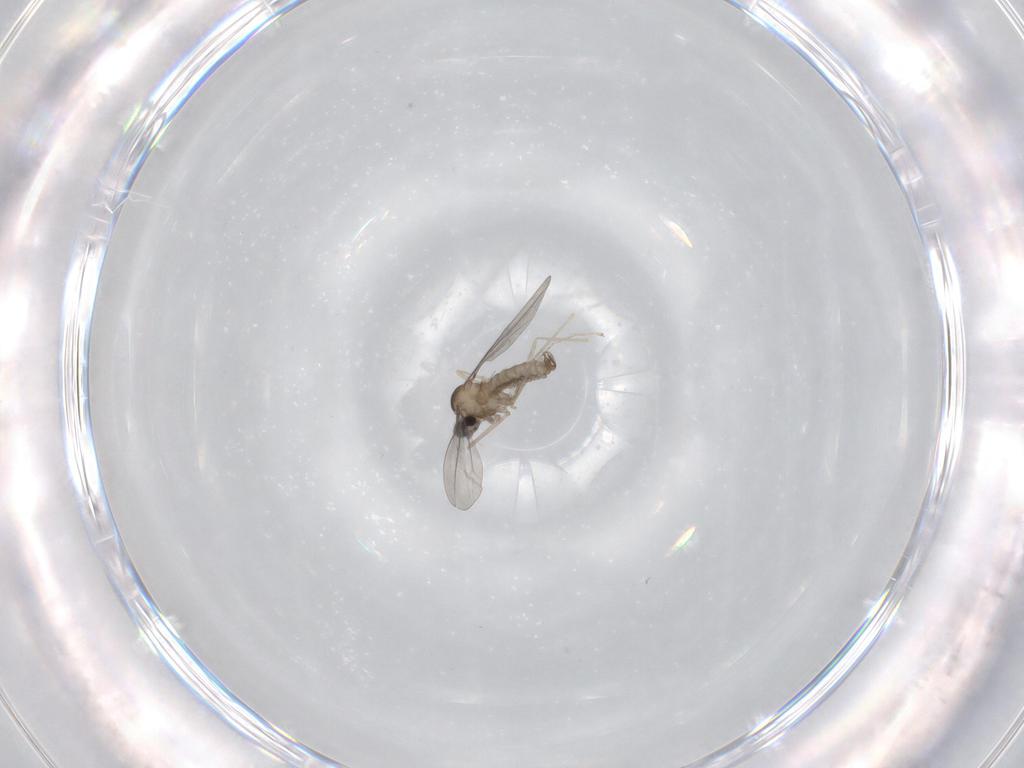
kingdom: Animalia
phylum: Arthropoda
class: Insecta
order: Diptera
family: Cecidomyiidae
